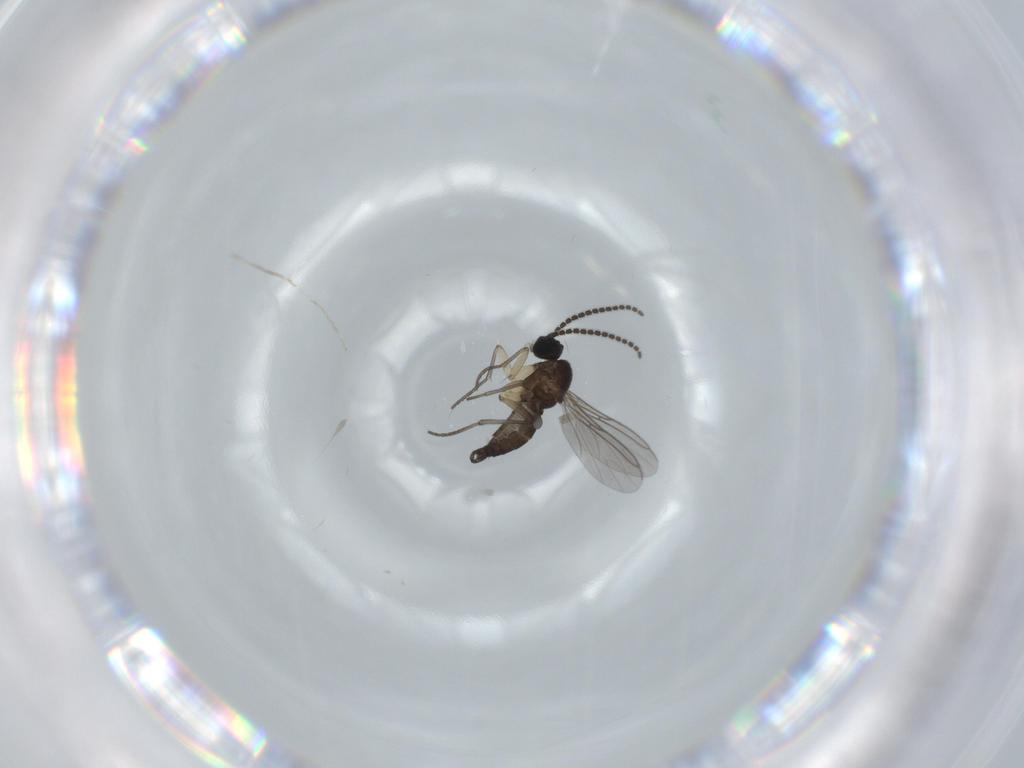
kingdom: Animalia
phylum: Arthropoda
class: Insecta
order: Diptera
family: Sciaridae
